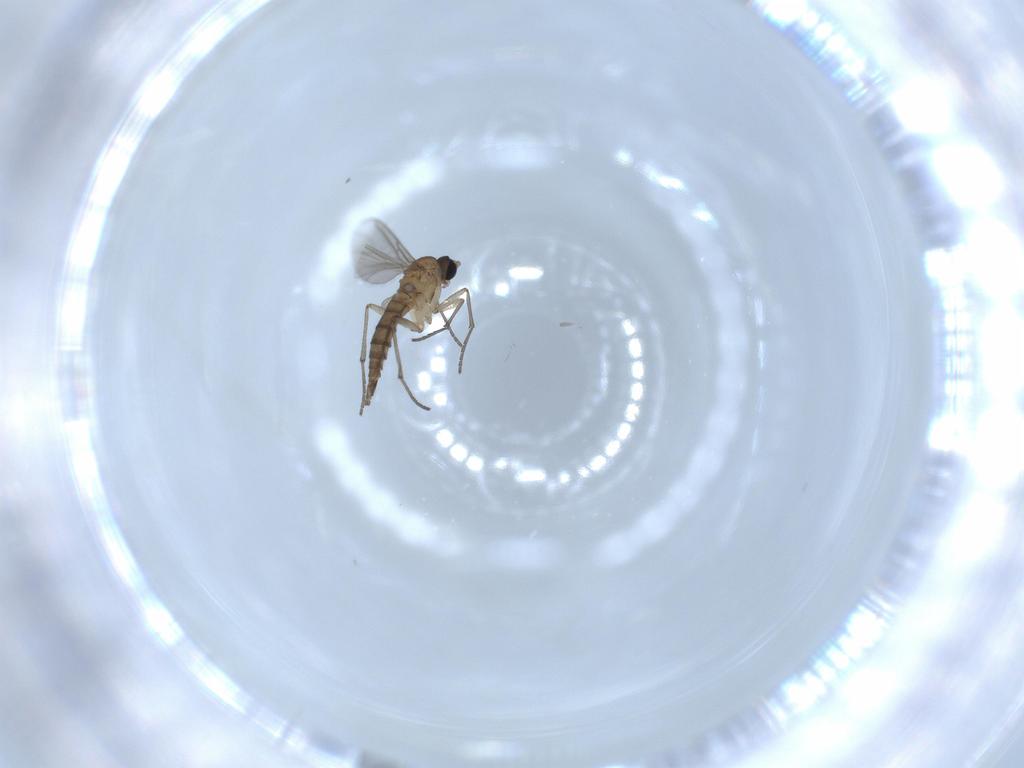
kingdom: Animalia
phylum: Arthropoda
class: Insecta
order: Diptera
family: Sciaridae
